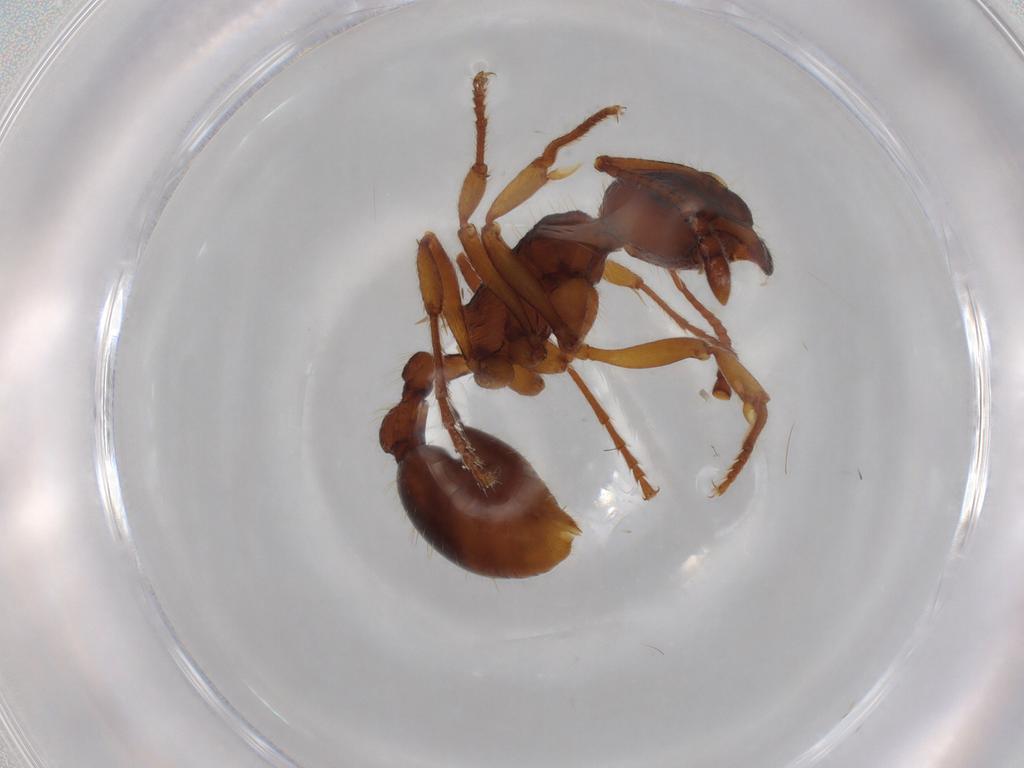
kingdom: Animalia
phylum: Arthropoda
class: Insecta
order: Hymenoptera
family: Formicidae
